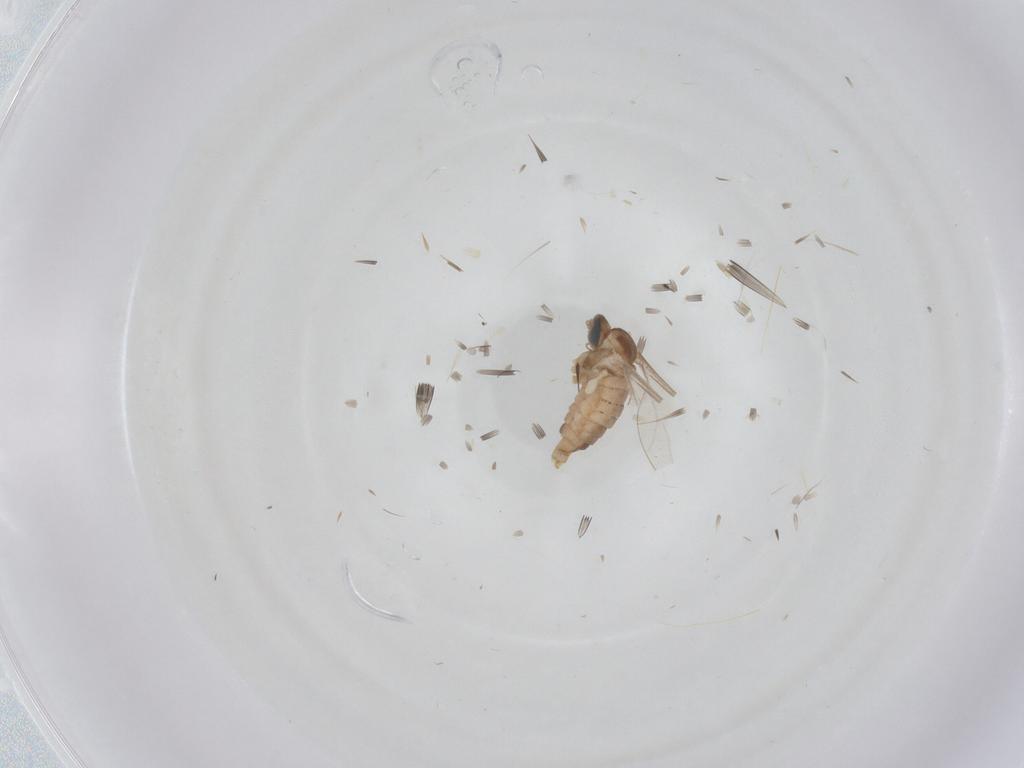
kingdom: Animalia
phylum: Arthropoda
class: Insecta
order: Diptera
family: Cecidomyiidae
